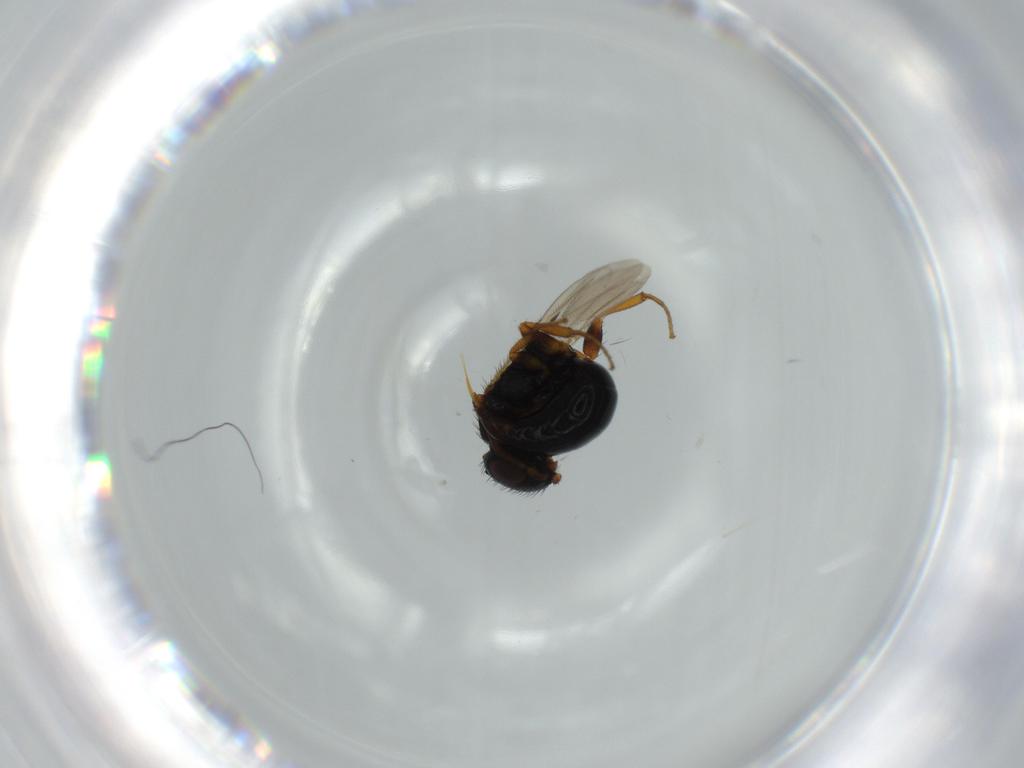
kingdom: Animalia
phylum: Arthropoda
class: Insecta
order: Hymenoptera
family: Bethylidae
